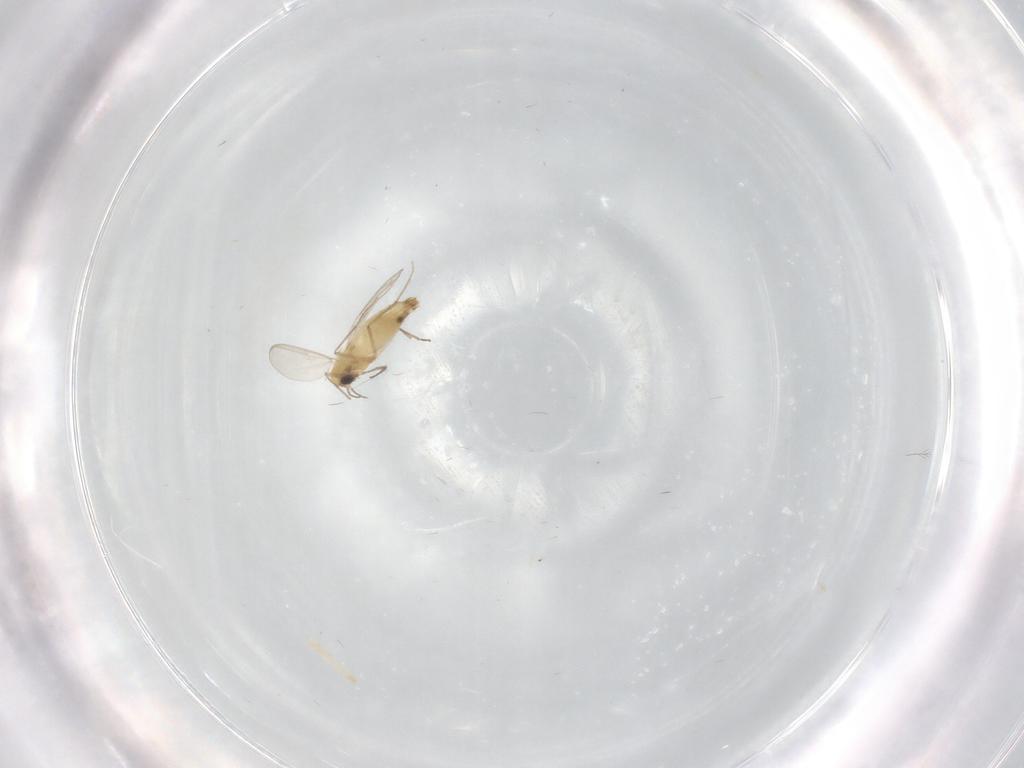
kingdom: Animalia
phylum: Arthropoda
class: Insecta
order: Diptera
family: Chironomidae
